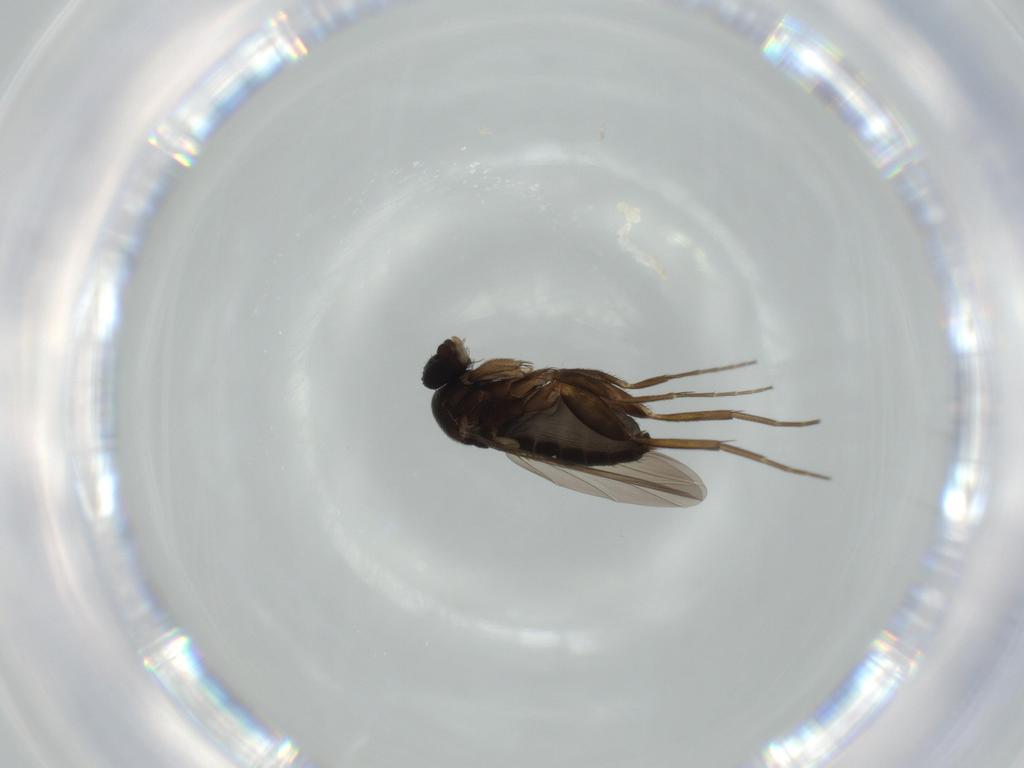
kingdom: Animalia
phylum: Arthropoda
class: Insecta
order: Diptera
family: Phoridae
